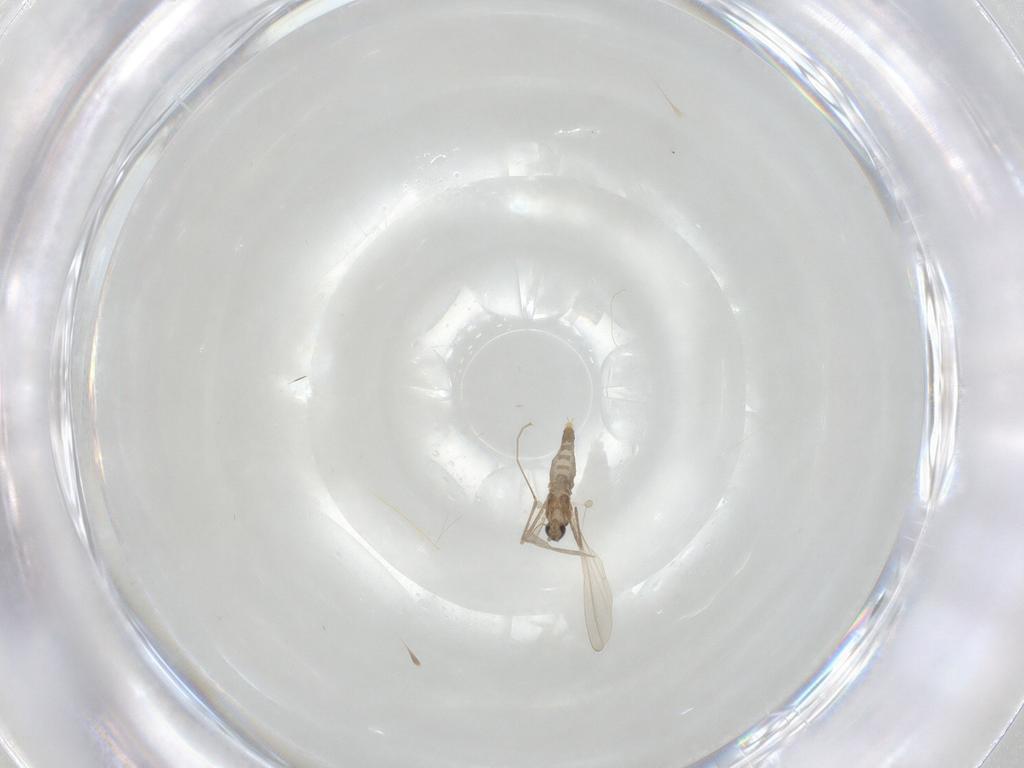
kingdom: Animalia
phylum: Arthropoda
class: Insecta
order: Diptera
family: Cecidomyiidae
